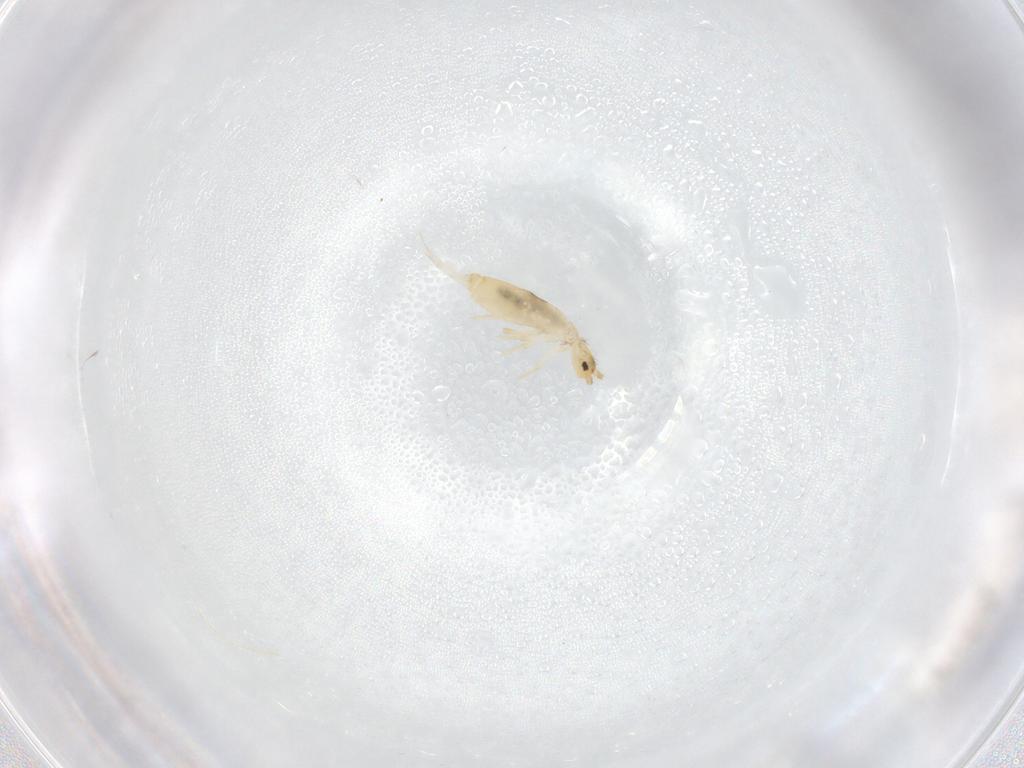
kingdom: Animalia
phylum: Arthropoda
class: Collembola
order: Entomobryomorpha
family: Entomobryidae
